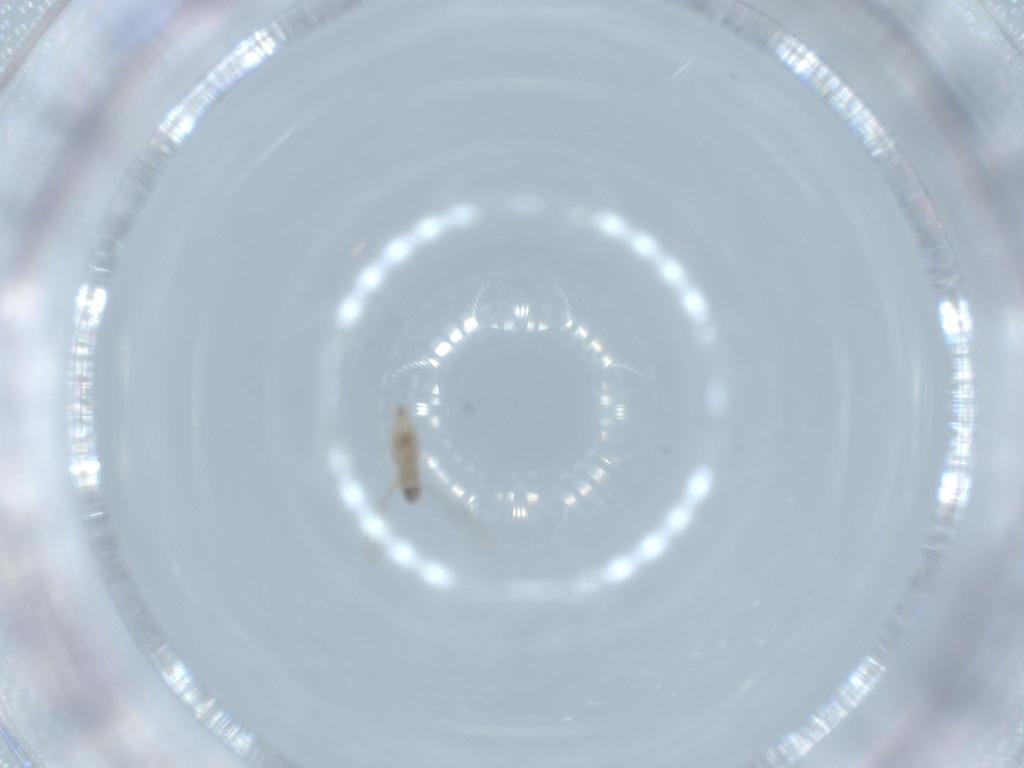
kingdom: Animalia
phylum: Arthropoda
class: Insecta
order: Diptera
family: Cecidomyiidae
